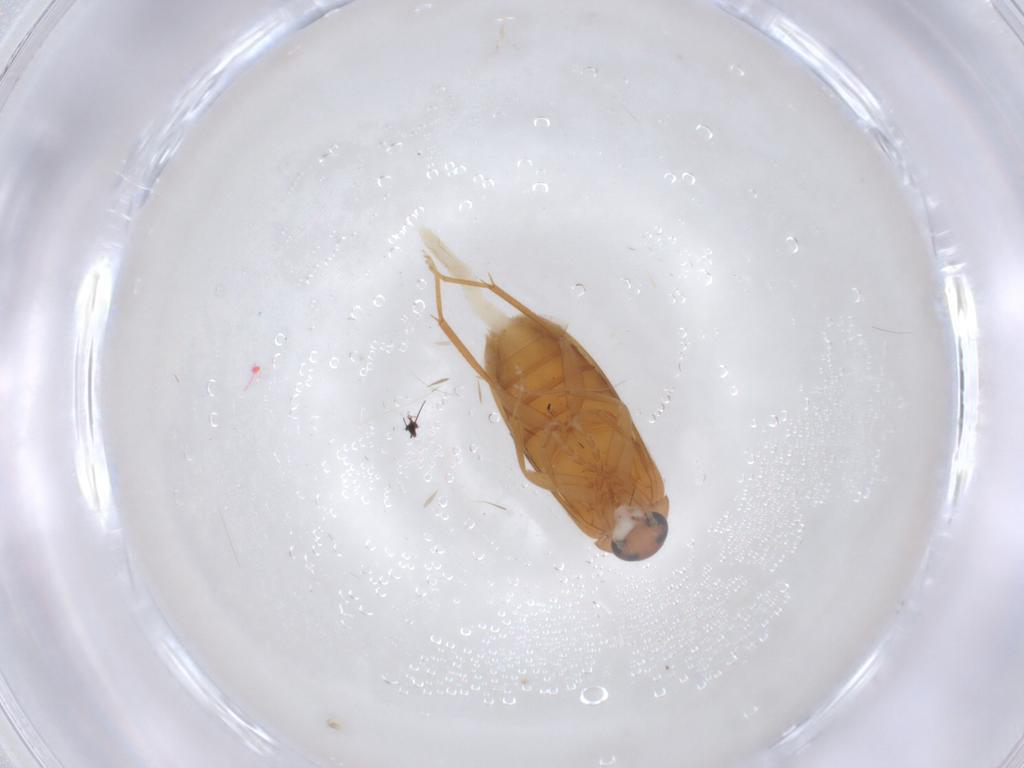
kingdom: Animalia
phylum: Arthropoda
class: Insecta
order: Coleoptera
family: Scraptiidae
